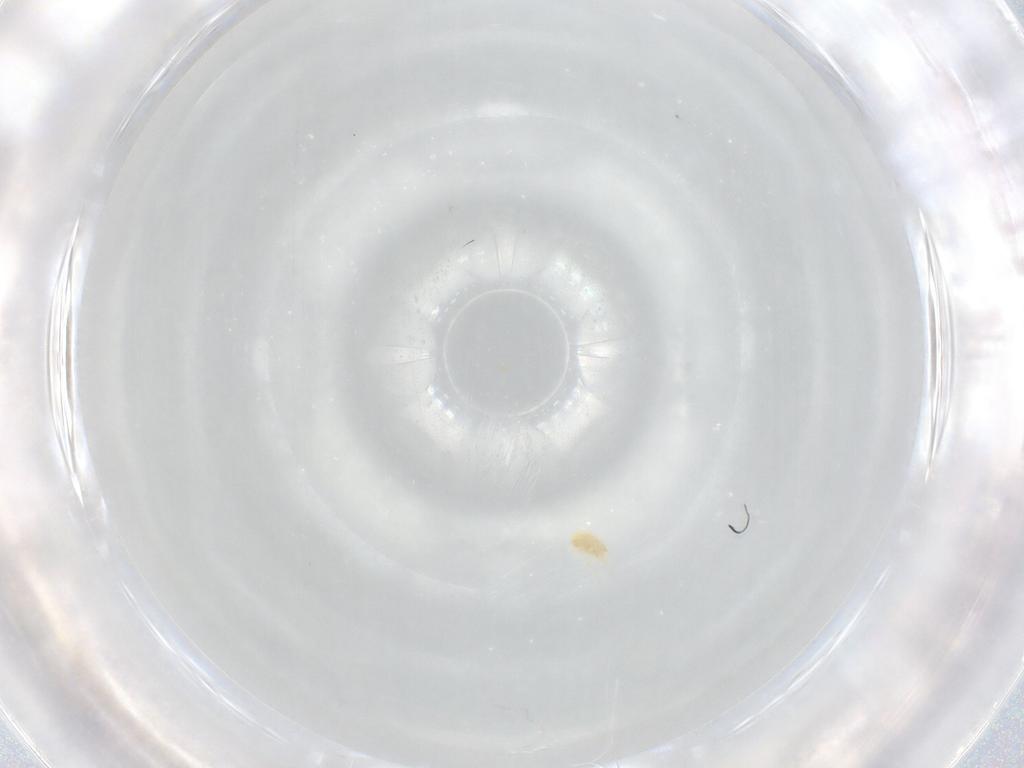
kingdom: Animalia
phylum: Arthropoda
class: Arachnida
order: Trombidiformes
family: Eupodidae
